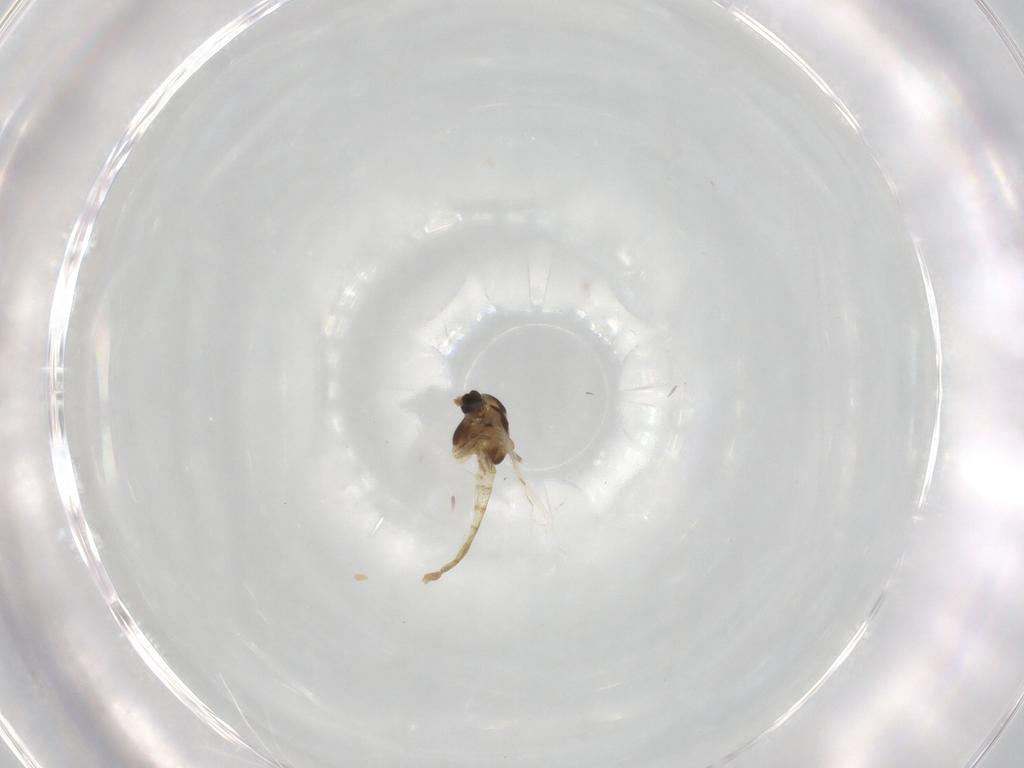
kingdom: Animalia
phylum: Arthropoda
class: Insecta
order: Diptera
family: Chironomidae
